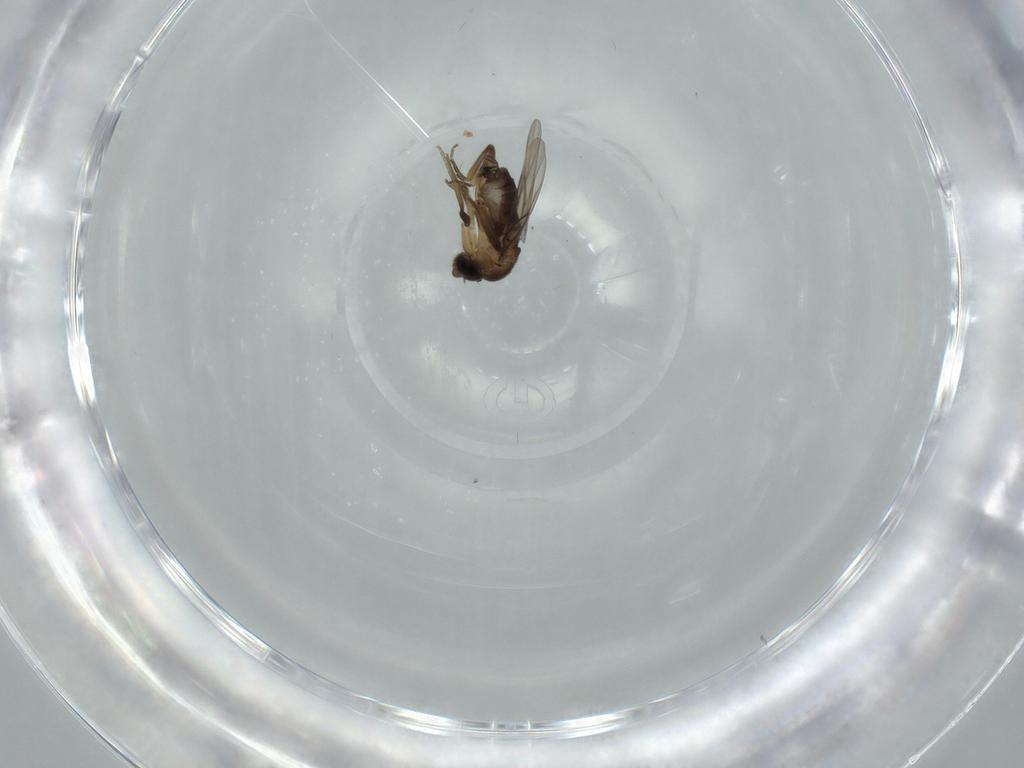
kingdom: Animalia
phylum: Arthropoda
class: Insecta
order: Diptera
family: Phoridae
